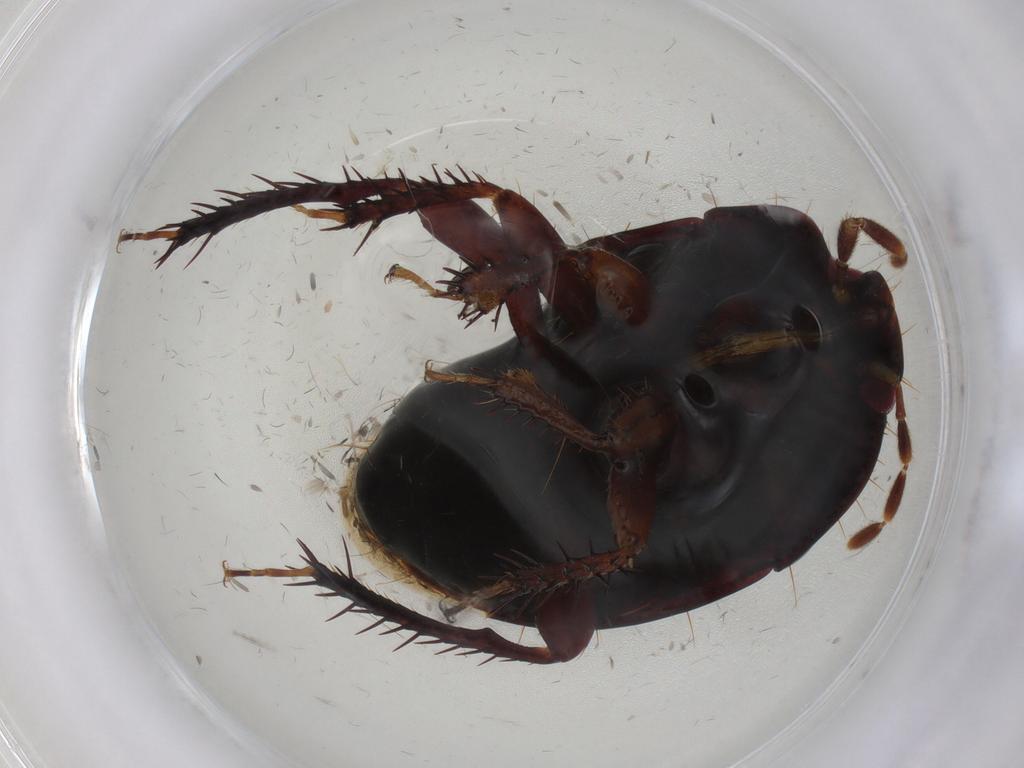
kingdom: Animalia
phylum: Arthropoda
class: Insecta
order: Hemiptera
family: Cydnidae
